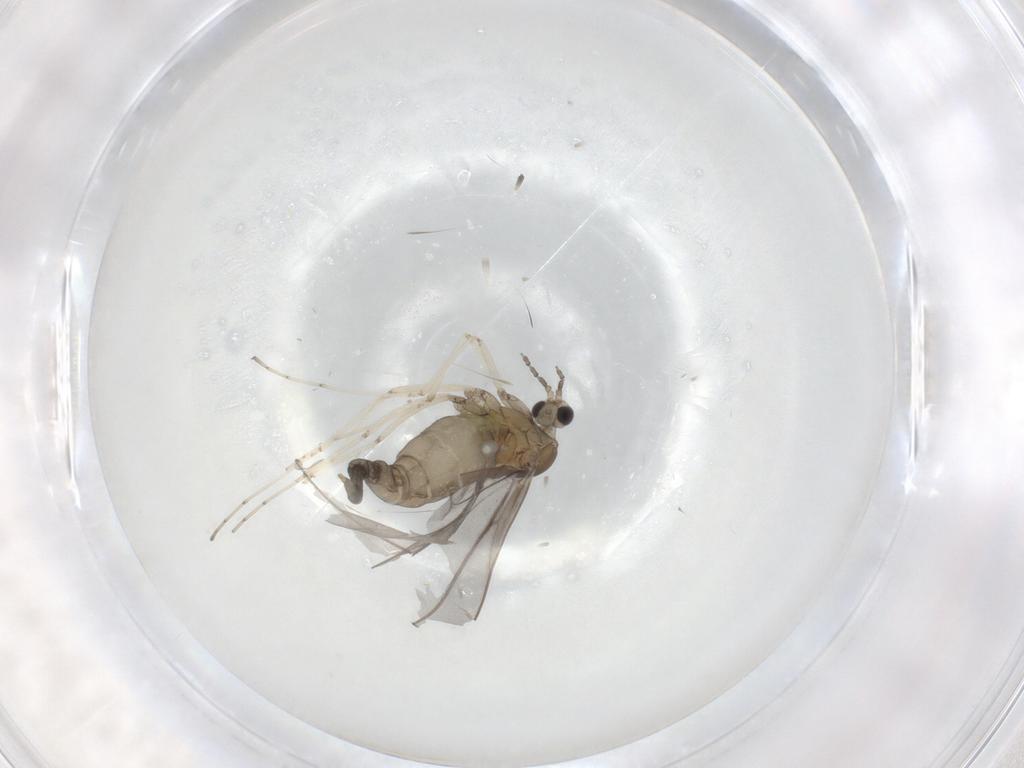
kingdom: Animalia
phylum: Arthropoda
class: Insecta
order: Diptera
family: Cecidomyiidae
